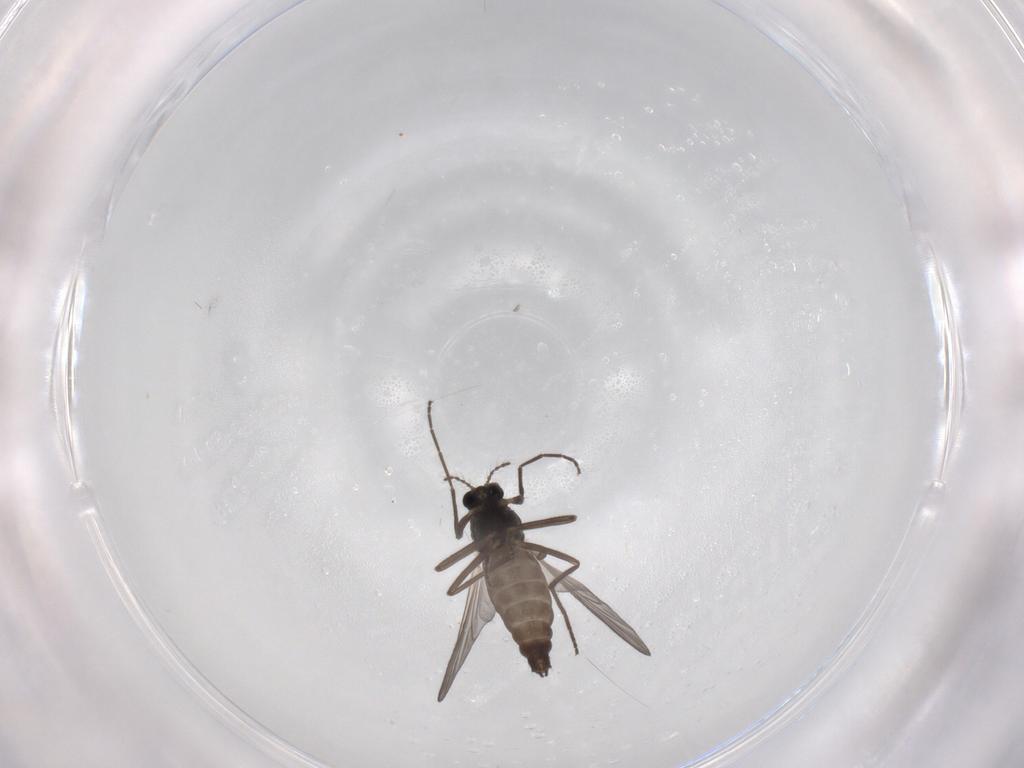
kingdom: Animalia
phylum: Arthropoda
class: Insecta
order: Diptera
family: Chironomidae
